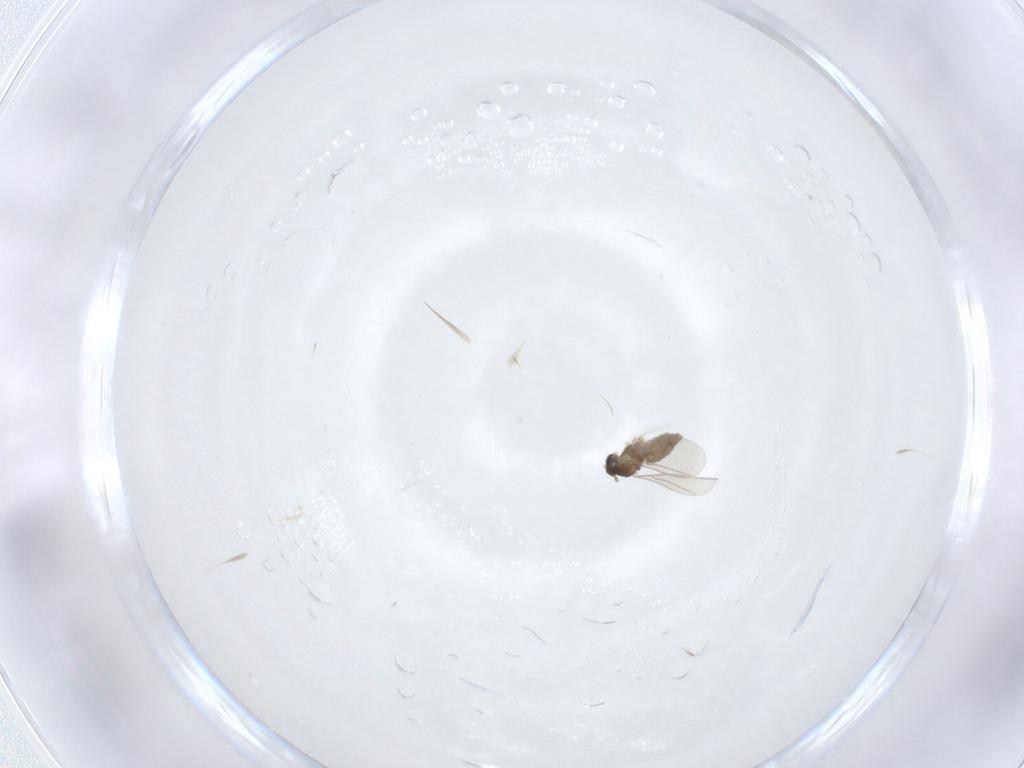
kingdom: Animalia
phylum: Arthropoda
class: Insecta
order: Diptera
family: Cecidomyiidae
